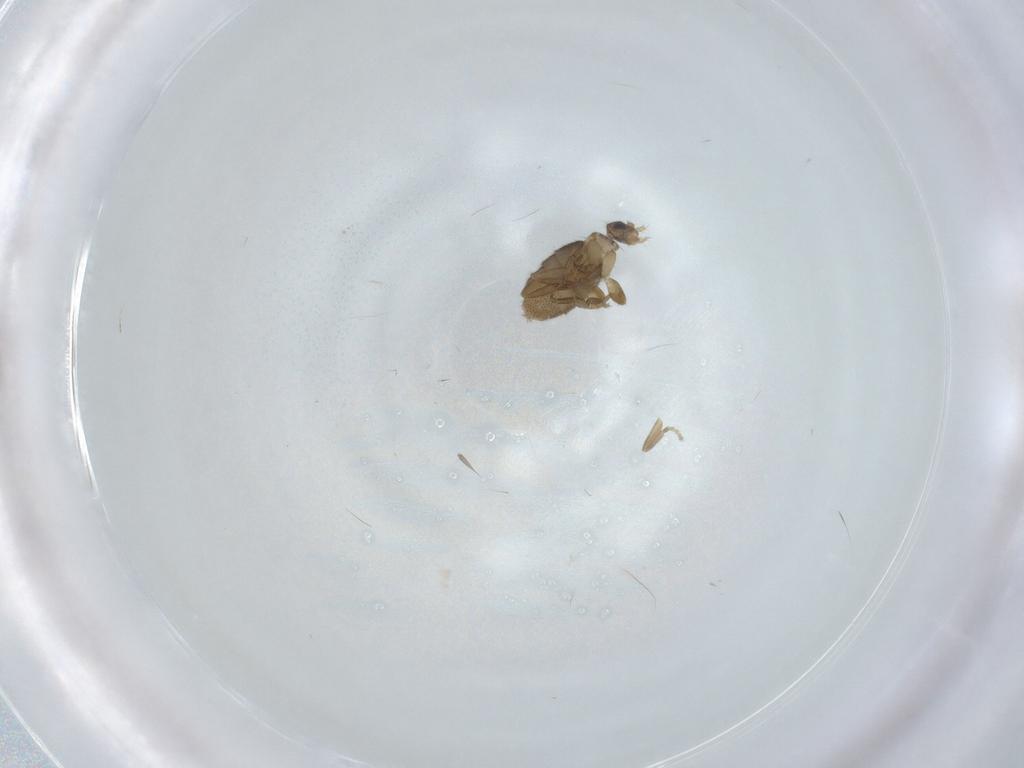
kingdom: Animalia
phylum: Arthropoda
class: Insecta
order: Diptera
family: Phoridae
